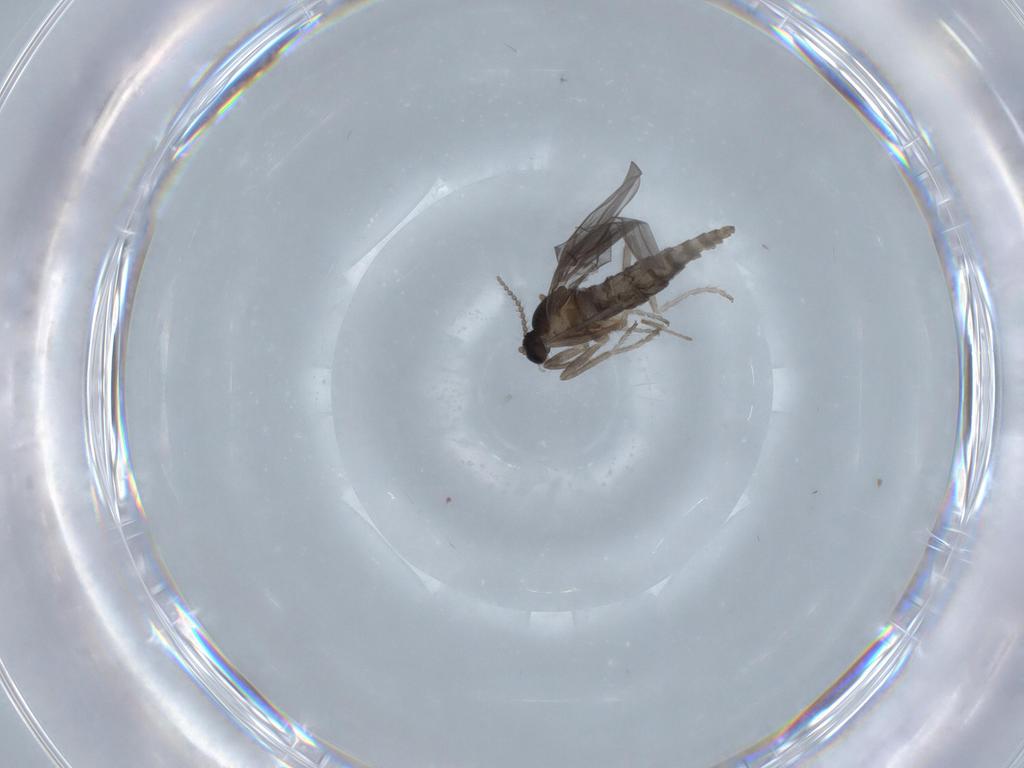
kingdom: Animalia
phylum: Arthropoda
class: Insecta
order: Diptera
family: Cecidomyiidae
